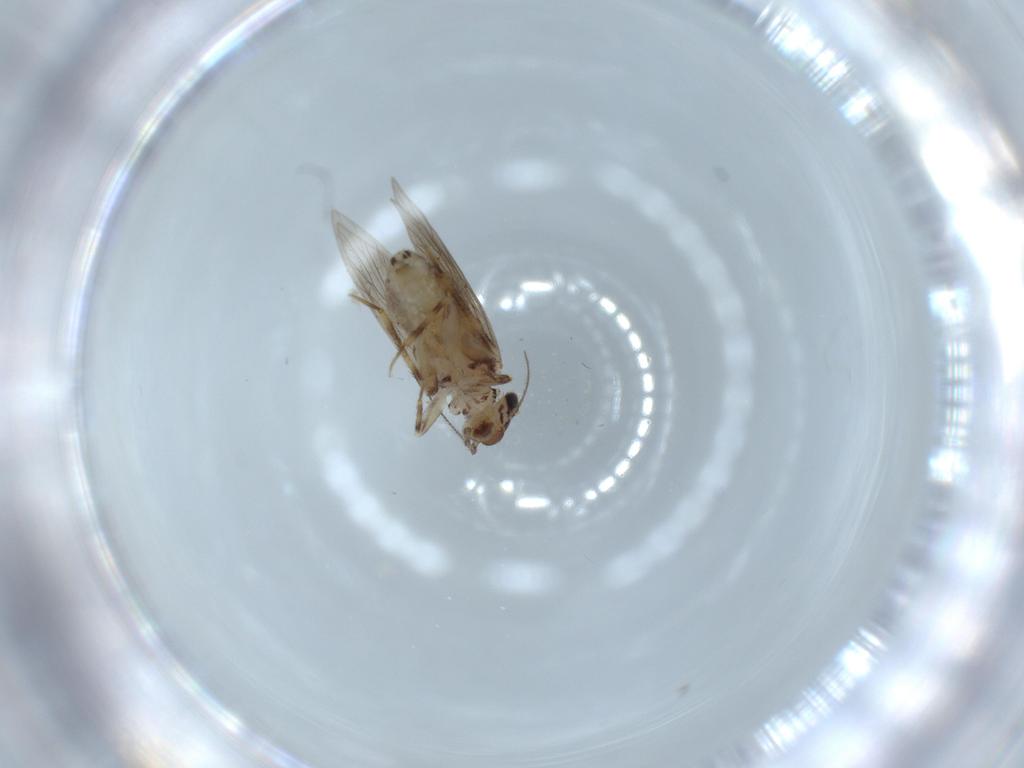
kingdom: Animalia
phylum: Arthropoda
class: Insecta
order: Psocodea
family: Lepidopsocidae
